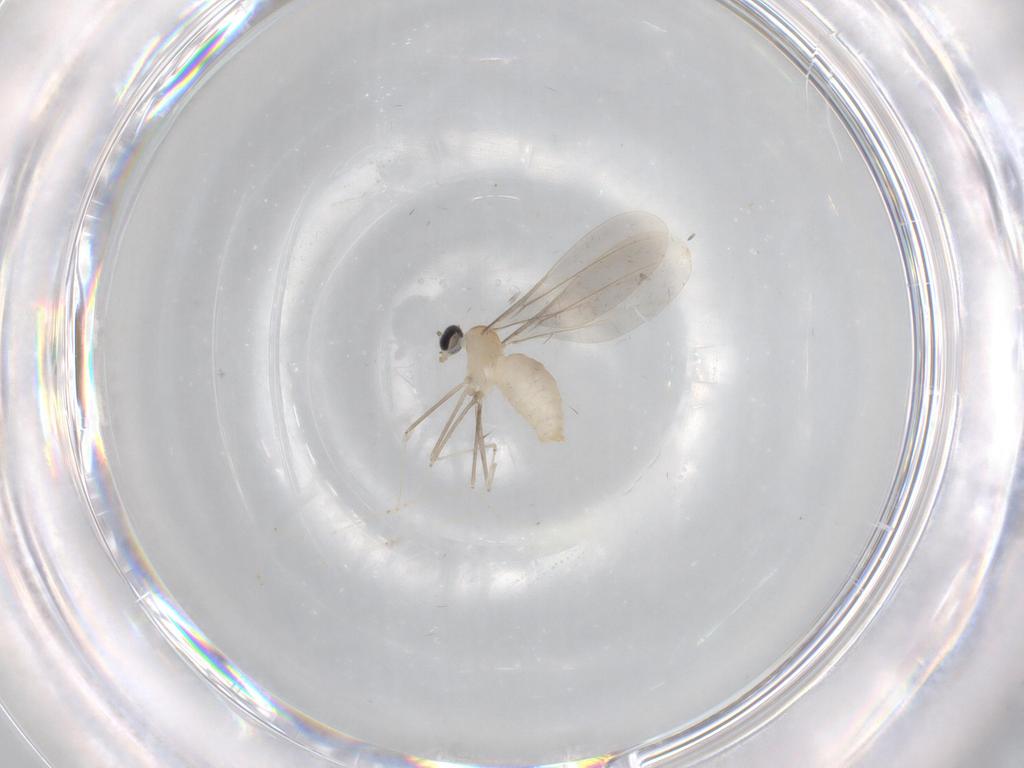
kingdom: Animalia
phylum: Arthropoda
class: Insecta
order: Diptera
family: Cecidomyiidae
